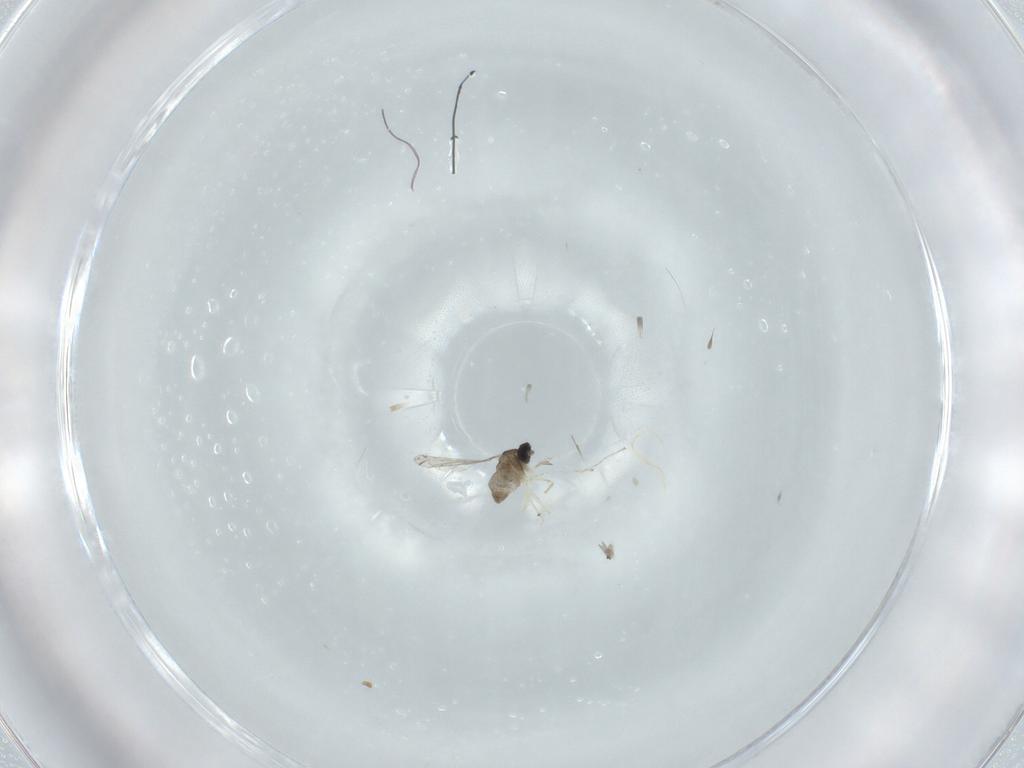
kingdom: Animalia
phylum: Arthropoda
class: Insecta
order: Diptera
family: Cecidomyiidae
